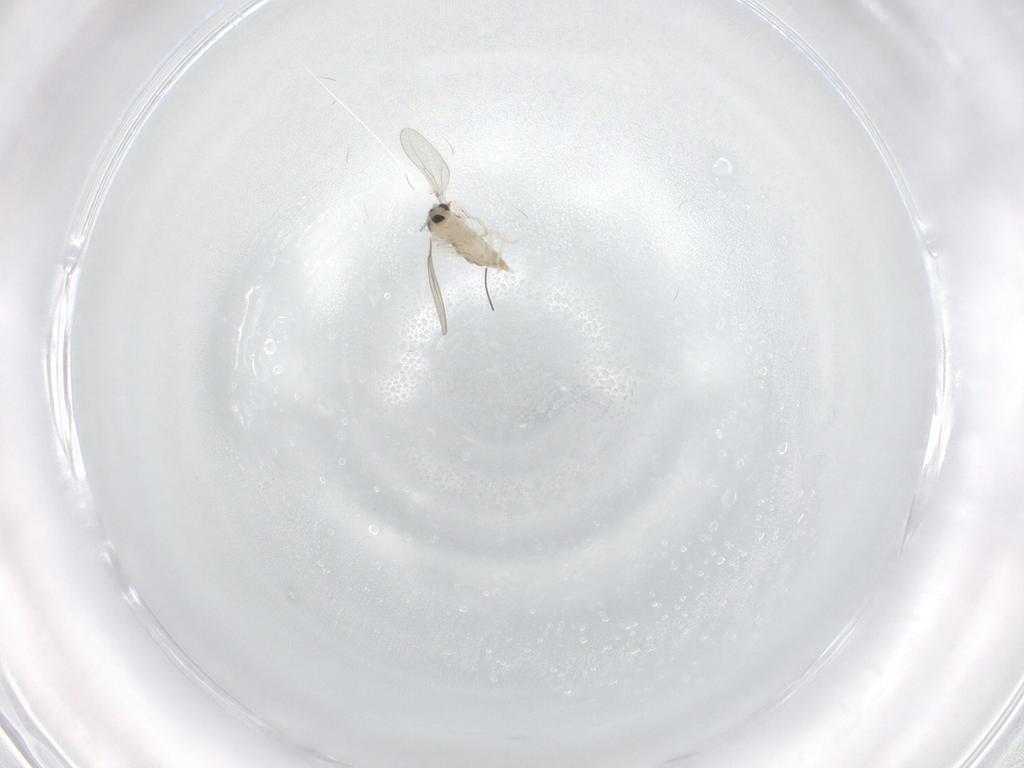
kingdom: Animalia
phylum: Arthropoda
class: Insecta
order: Diptera
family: Cecidomyiidae
